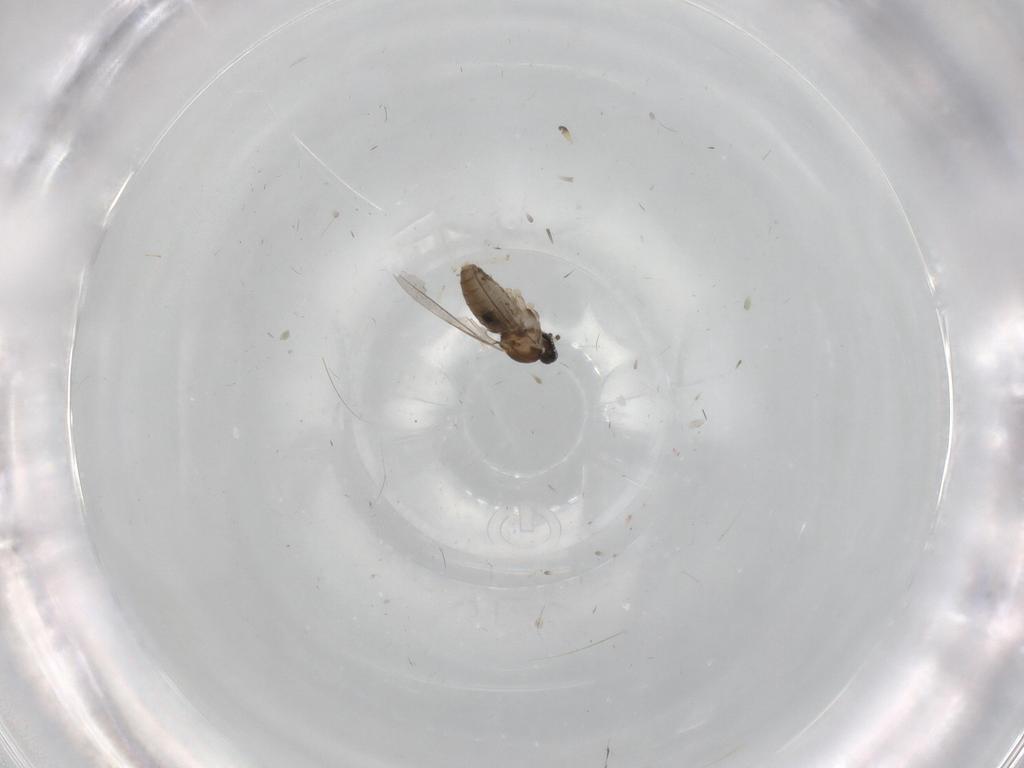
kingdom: Animalia
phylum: Arthropoda
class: Insecta
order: Diptera
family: Cecidomyiidae
